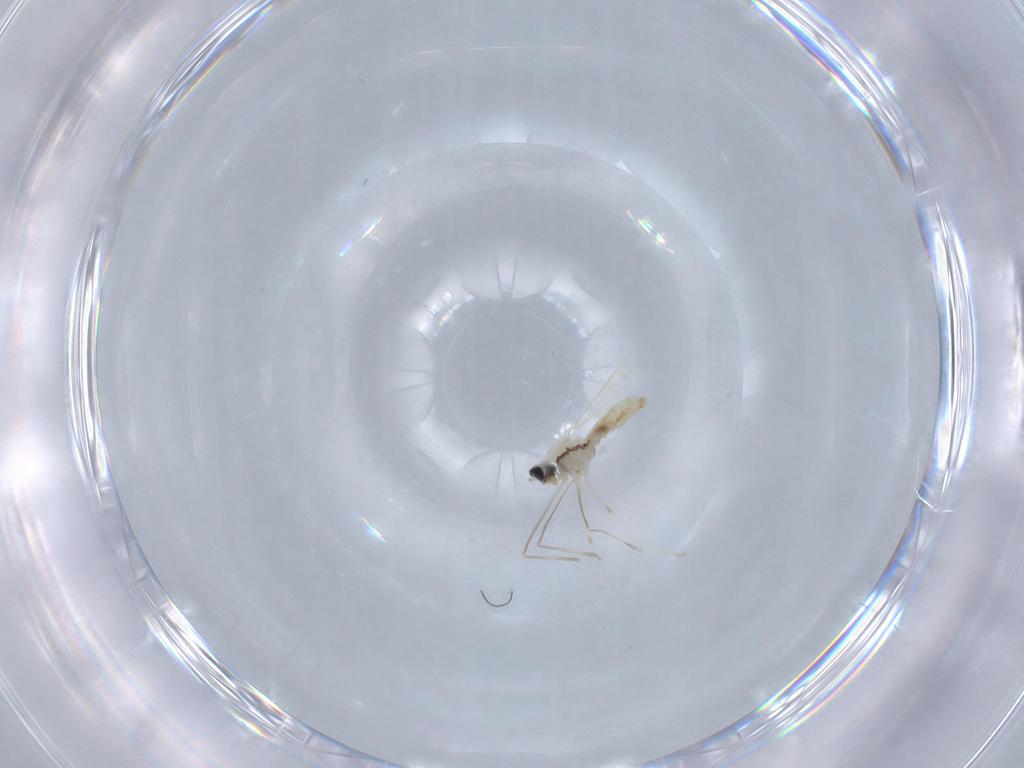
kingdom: Animalia
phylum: Arthropoda
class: Insecta
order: Diptera
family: Cecidomyiidae
